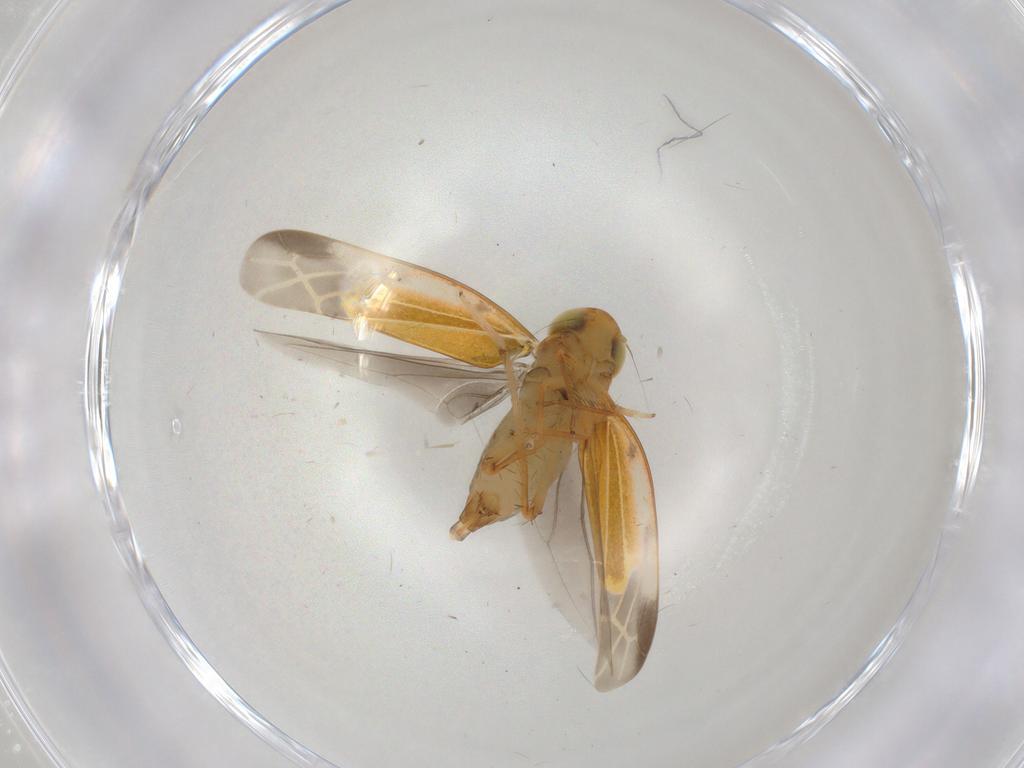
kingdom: Animalia
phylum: Arthropoda
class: Insecta
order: Hemiptera
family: Cicadellidae
